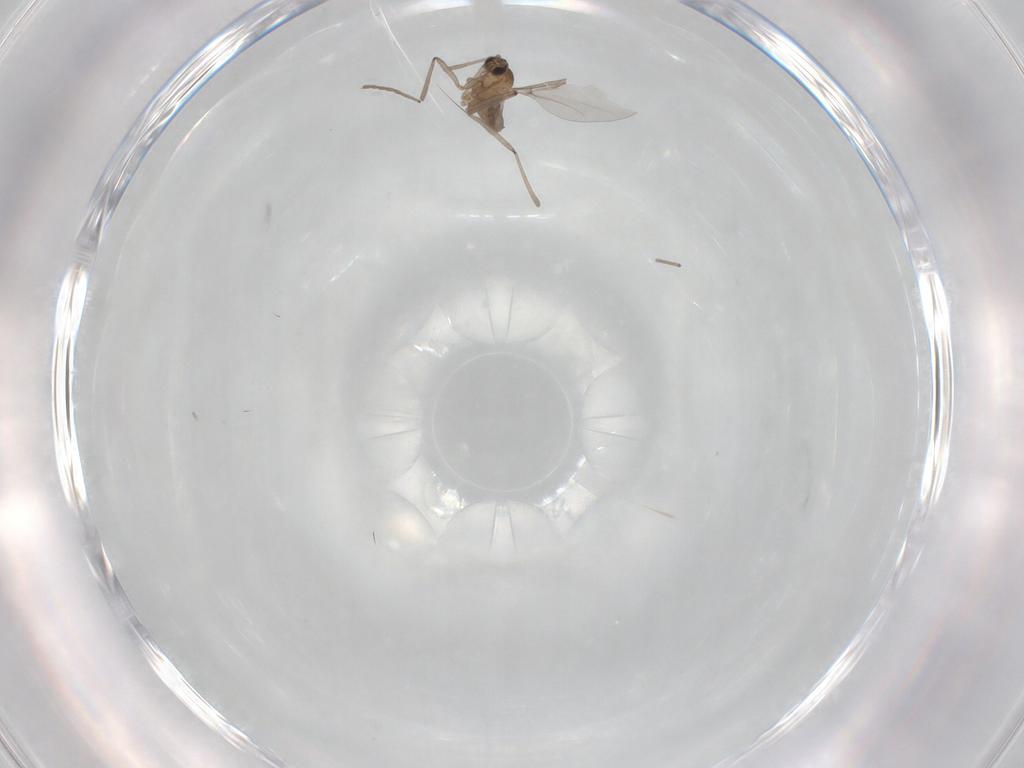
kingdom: Animalia
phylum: Arthropoda
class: Insecta
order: Diptera
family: Cecidomyiidae
